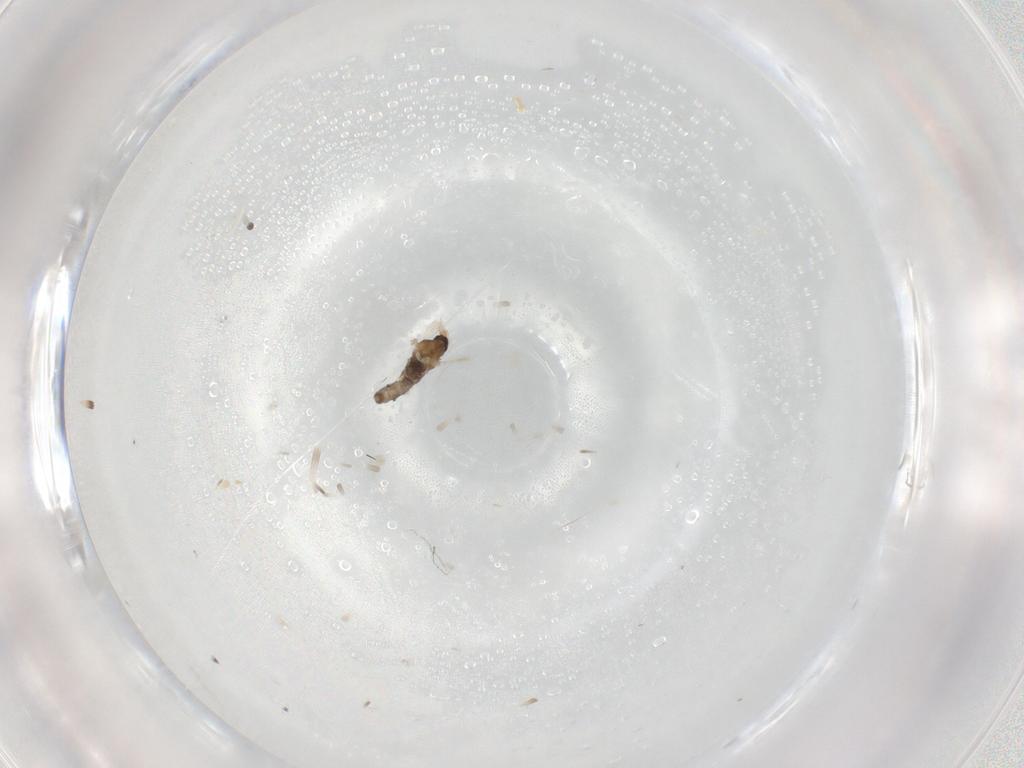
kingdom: Animalia
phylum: Arthropoda
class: Insecta
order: Diptera
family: Cecidomyiidae
